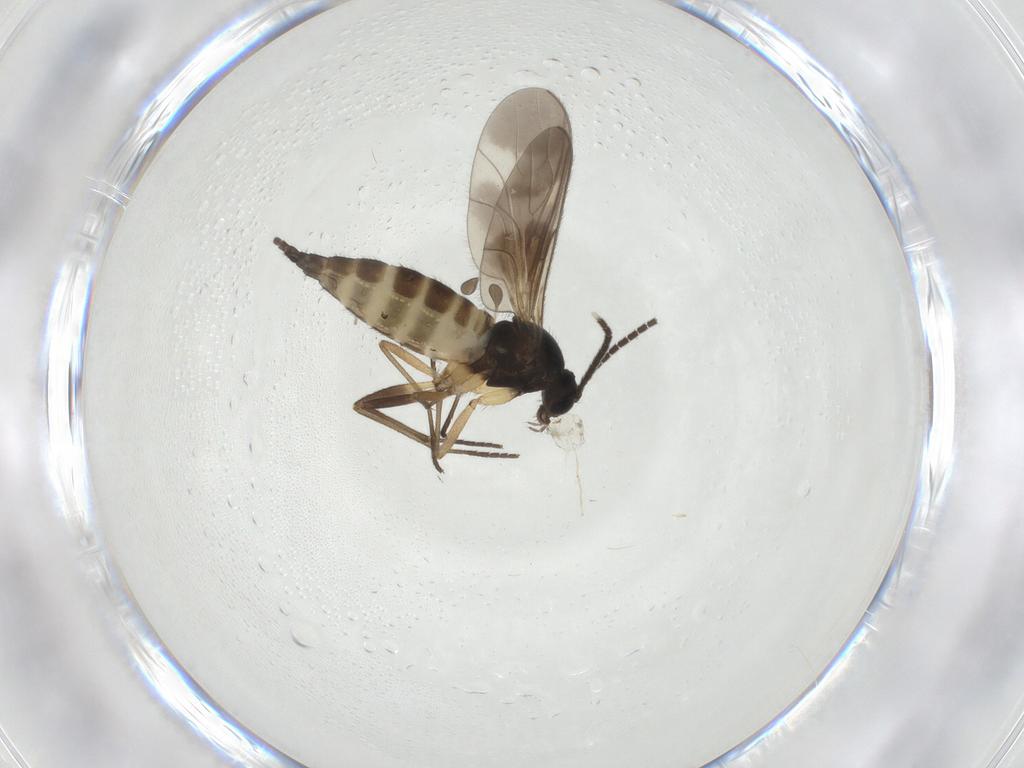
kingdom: Animalia
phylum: Arthropoda
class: Insecta
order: Diptera
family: Sciaridae
